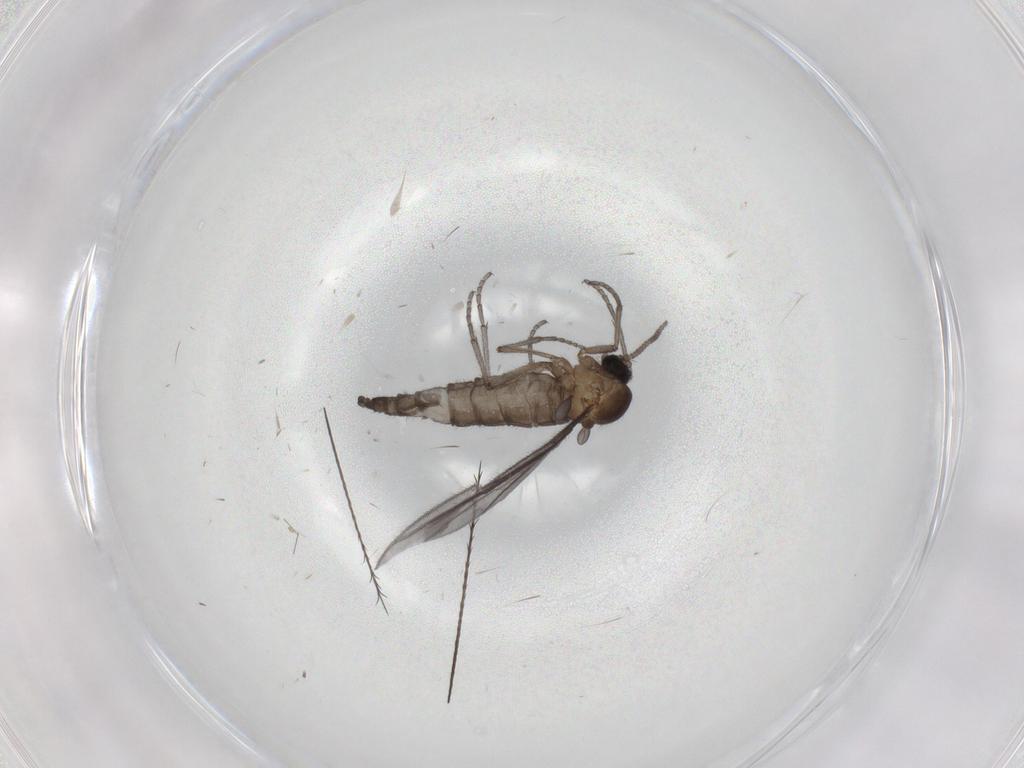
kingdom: Animalia
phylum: Arthropoda
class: Insecta
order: Diptera
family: Sciaridae
